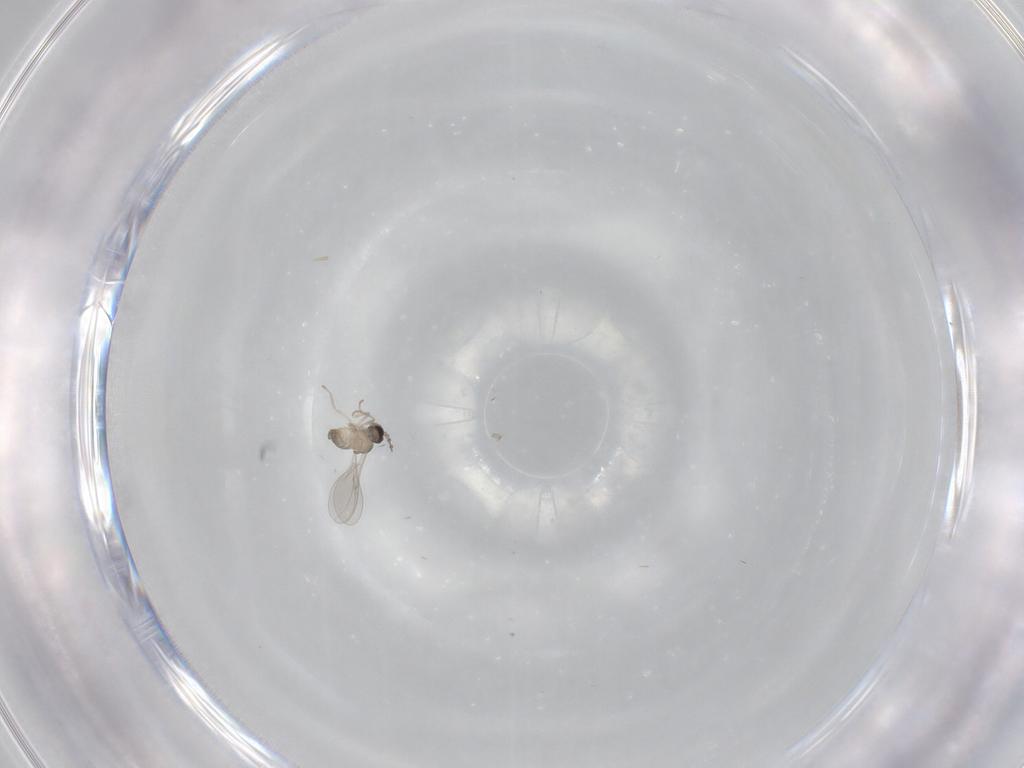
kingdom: Animalia
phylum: Arthropoda
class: Insecta
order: Diptera
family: Cecidomyiidae
